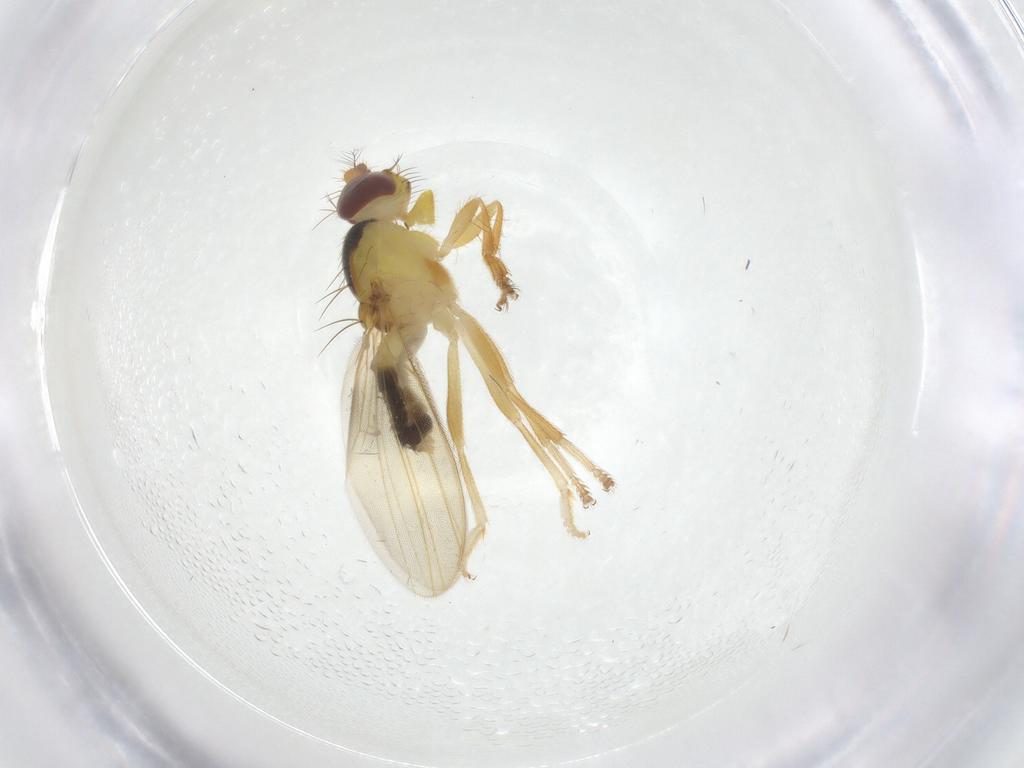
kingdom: Animalia
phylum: Arthropoda
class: Insecta
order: Diptera
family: Periscelididae
